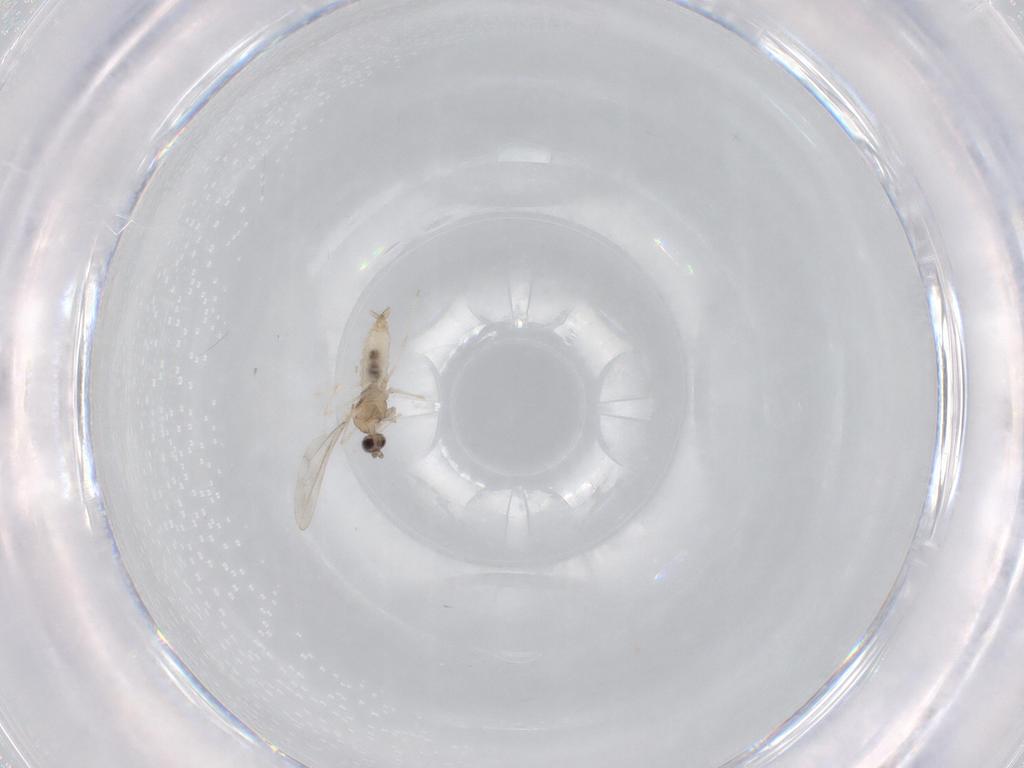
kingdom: Animalia
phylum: Arthropoda
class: Insecta
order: Diptera
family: Cecidomyiidae
